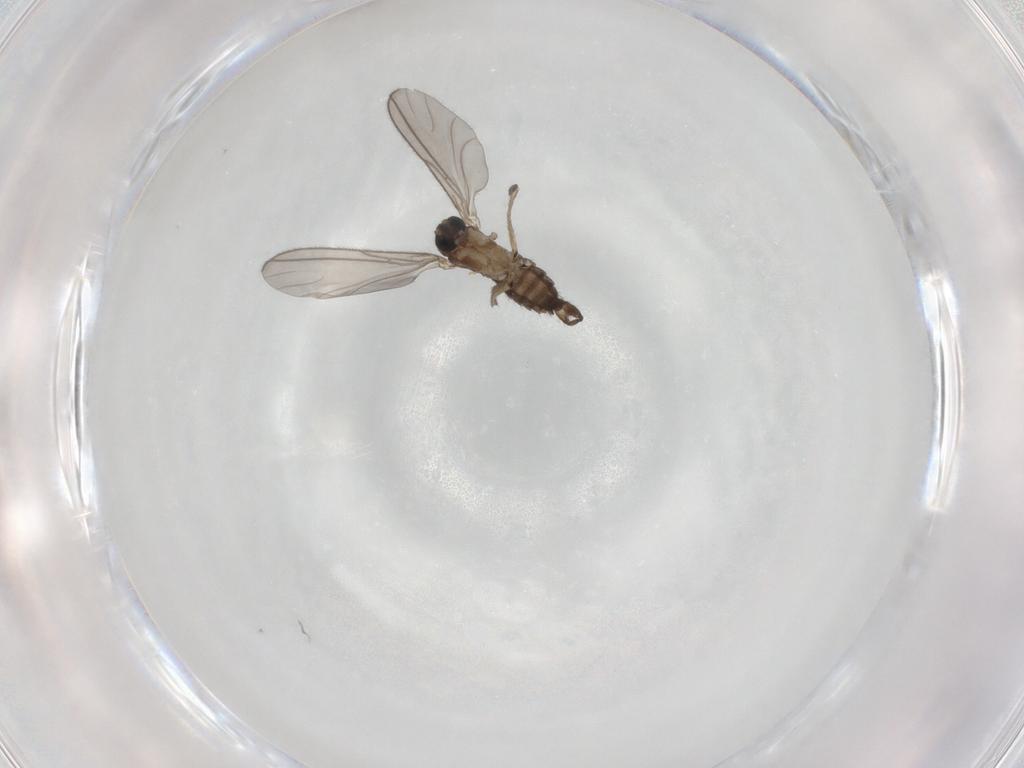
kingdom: Animalia
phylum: Arthropoda
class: Insecta
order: Diptera
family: Sciaridae
